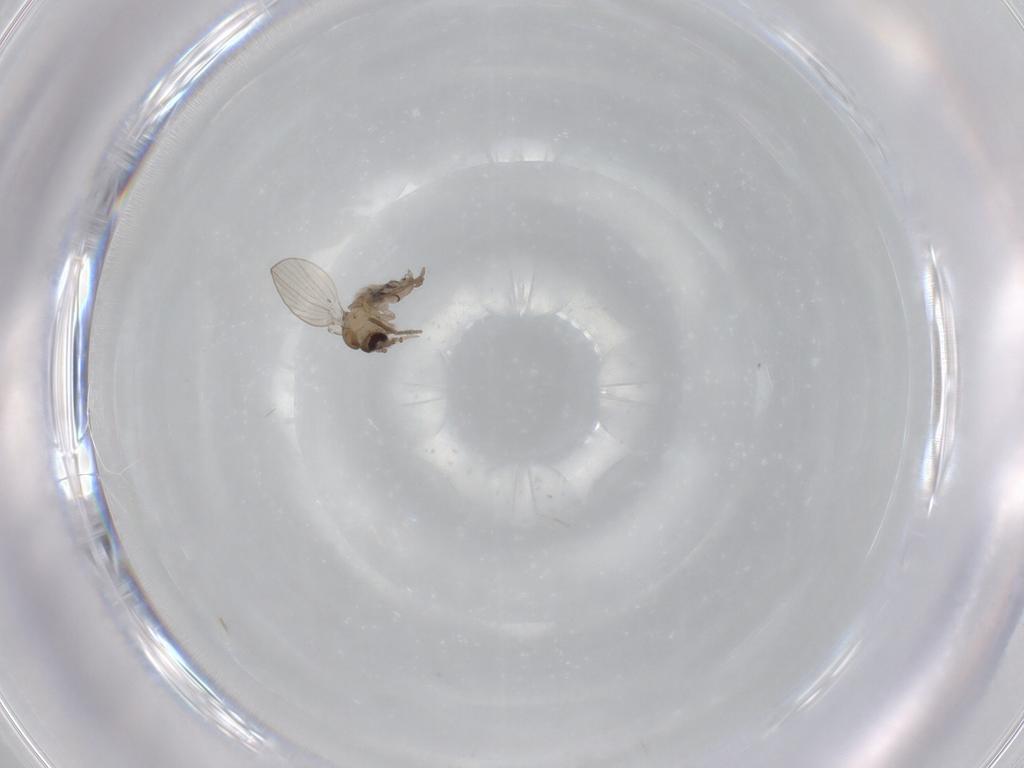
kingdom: Animalia
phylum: Arthropoda
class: Insecta
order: Diptera
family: Psychodidae
